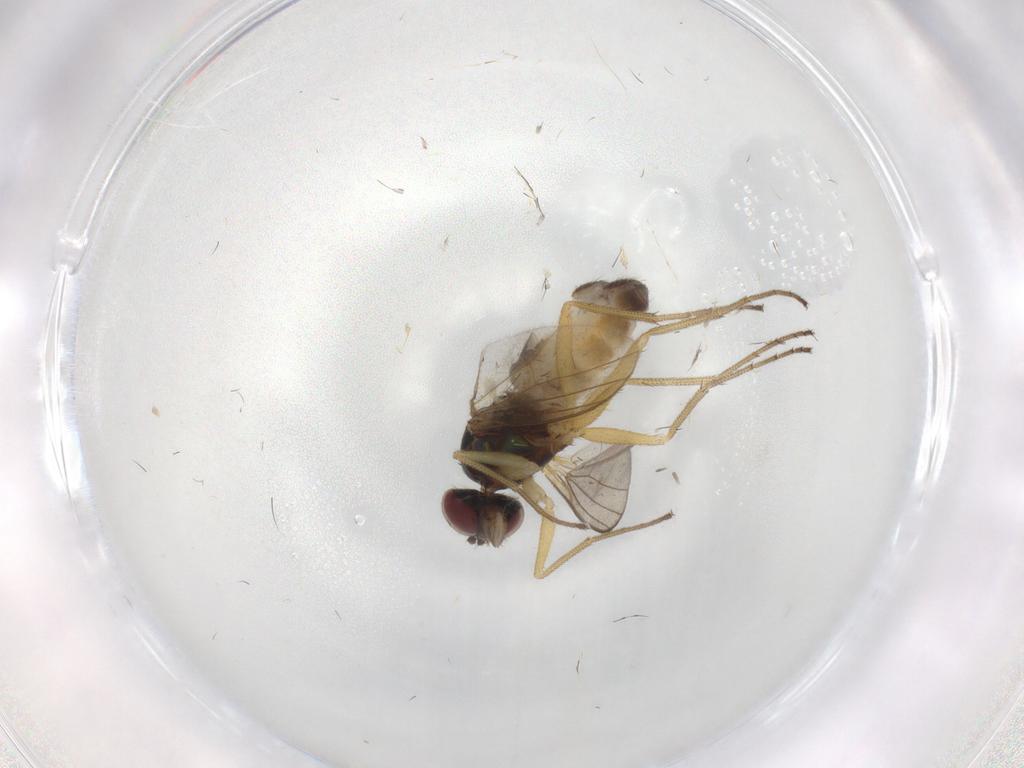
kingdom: Animalia
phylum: Arthropoda
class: Insecta
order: Diptera
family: Dolichopodidae
